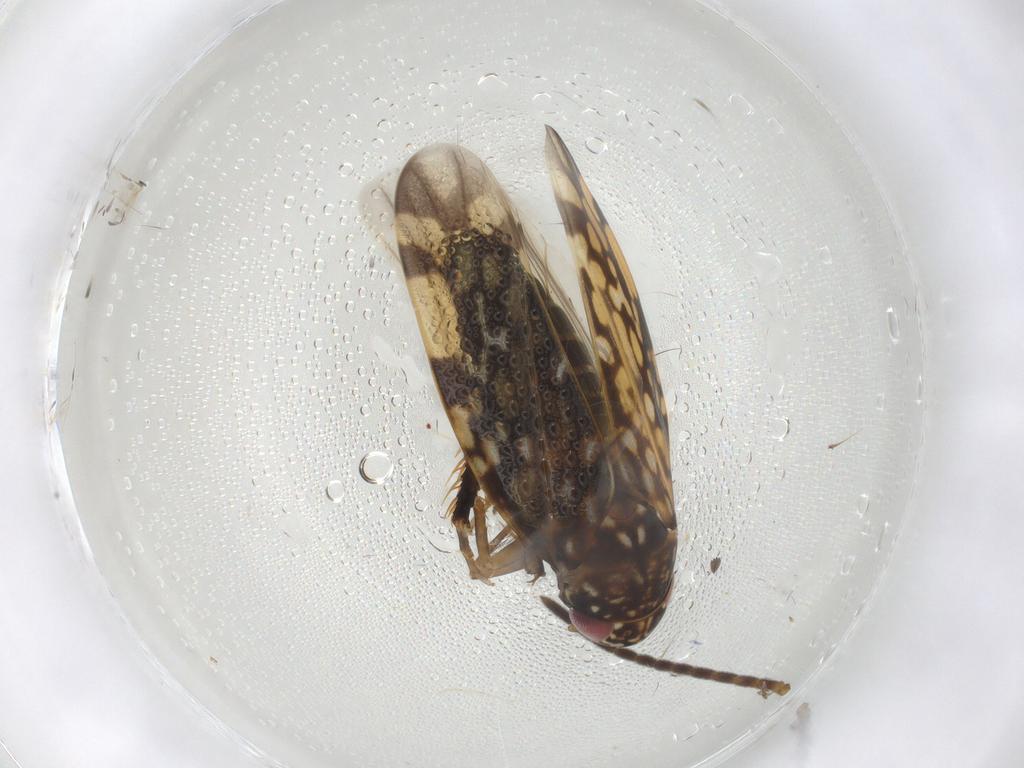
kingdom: Animalia
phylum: Arthropoda
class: Insecta
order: Hemiptera
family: Cicadellidae
